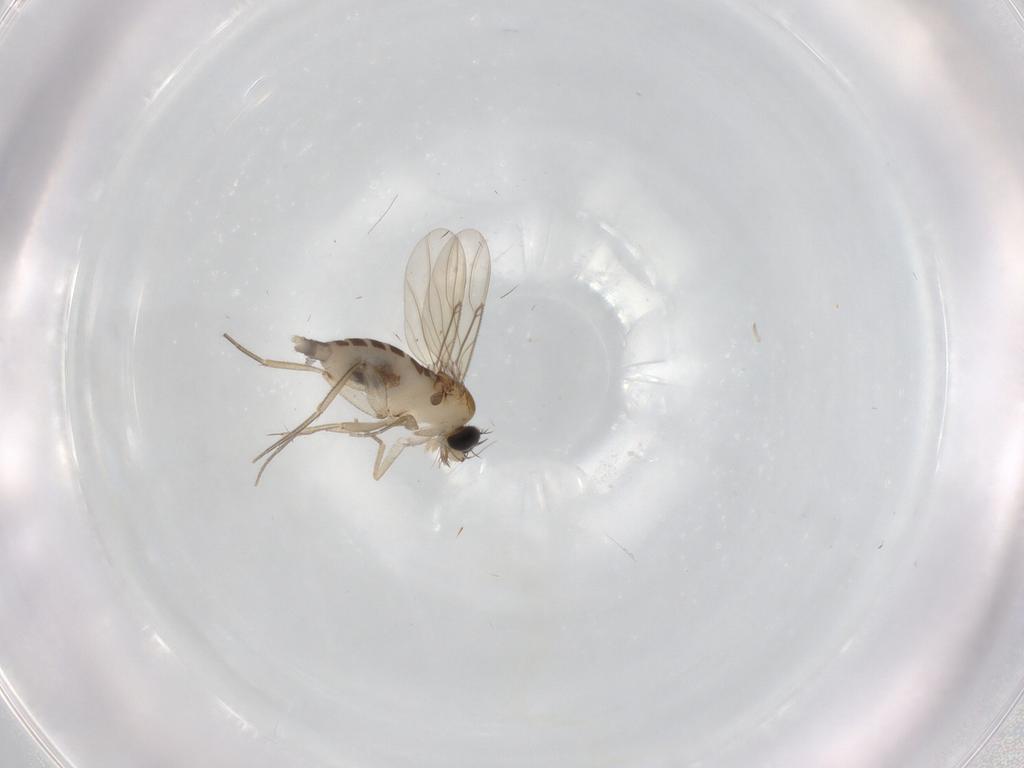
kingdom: Animalia
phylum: Arthropoda
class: Insecta
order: Diptera
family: Phoridae
